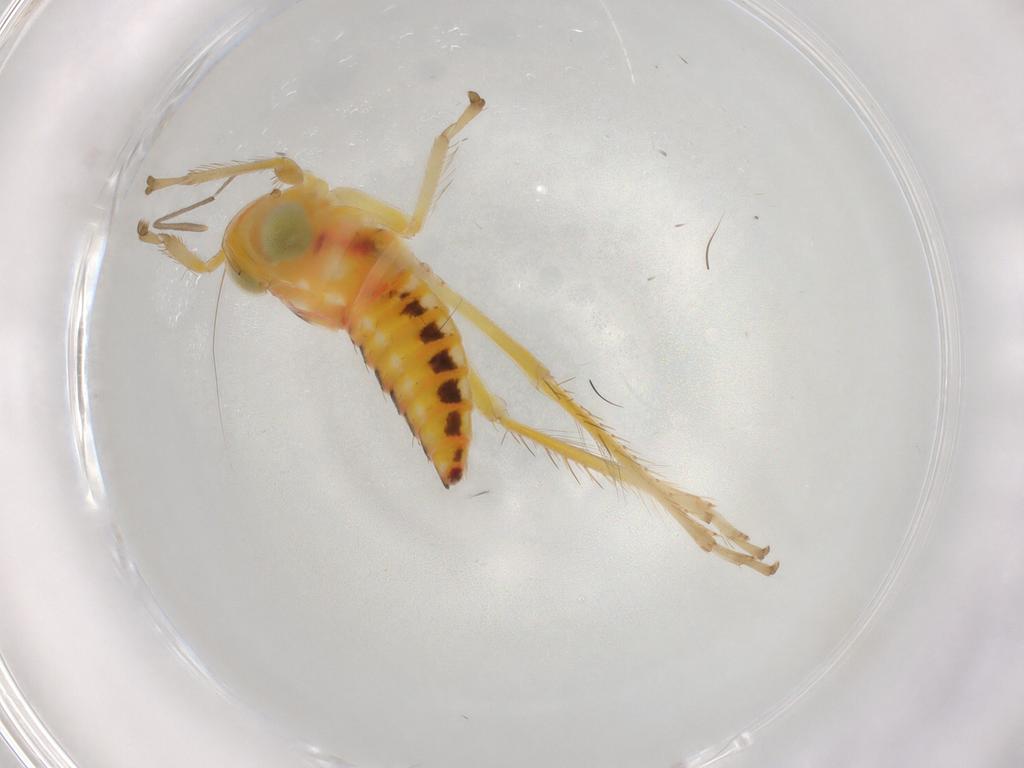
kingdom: Animalia
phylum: Arthropoda
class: Insecta
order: Hemiptera
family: Cicadellidae
